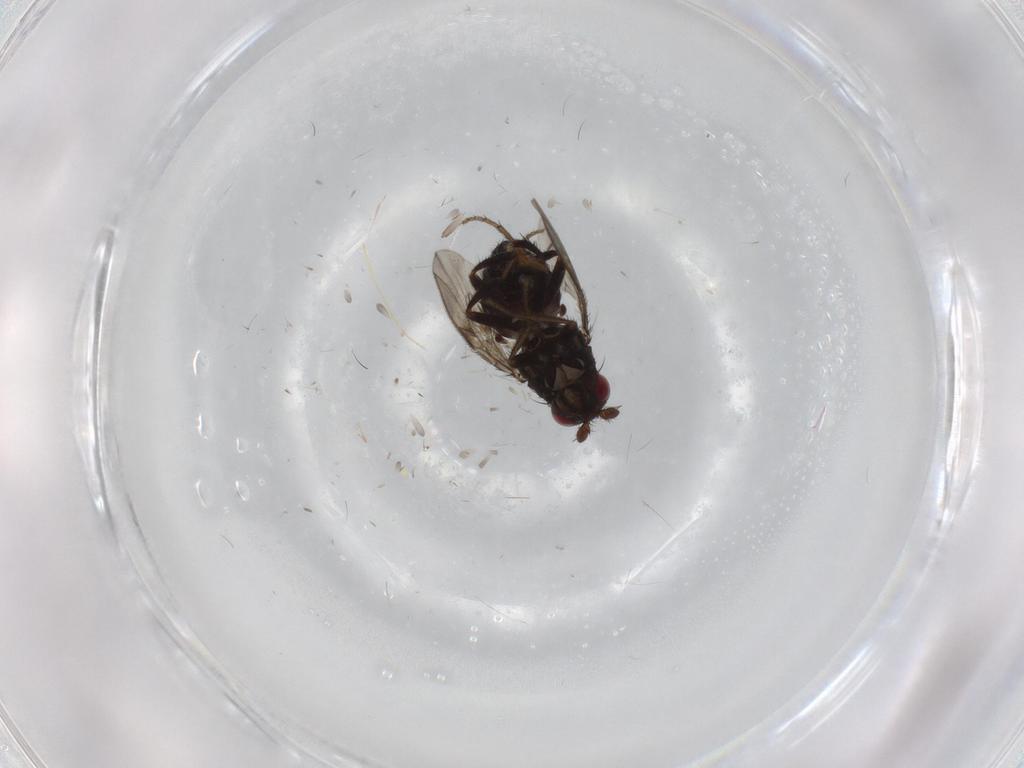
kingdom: Animalia
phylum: Arthropoda
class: Insecta
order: Diptera
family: Sphaeroceridae
